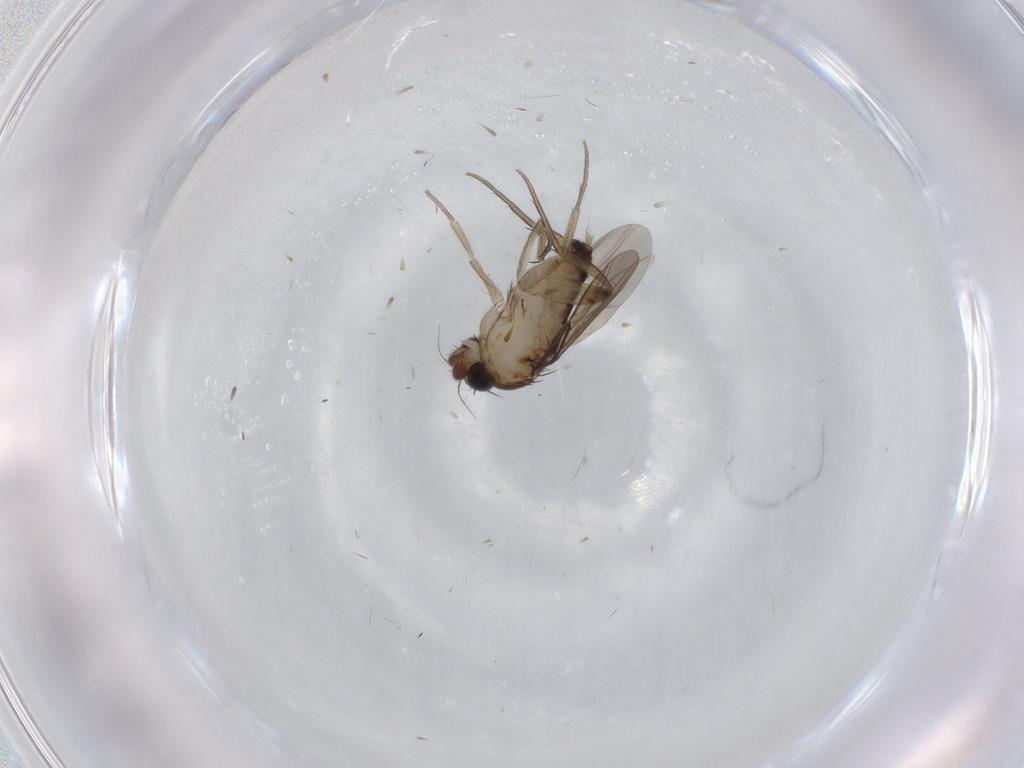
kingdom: Animalia
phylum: Arthropoda
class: Insecta
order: Diptera
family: Phoridae
